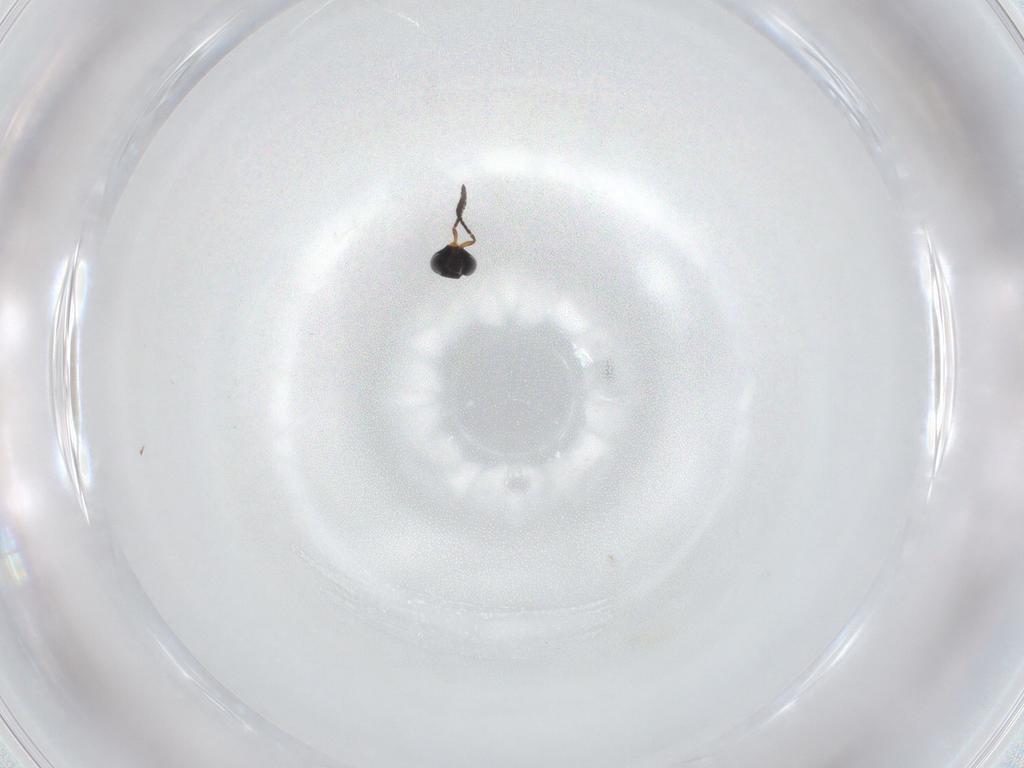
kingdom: Animalia
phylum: Arthropoda
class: Insecta
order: Hymenoptera
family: Scelionidae
